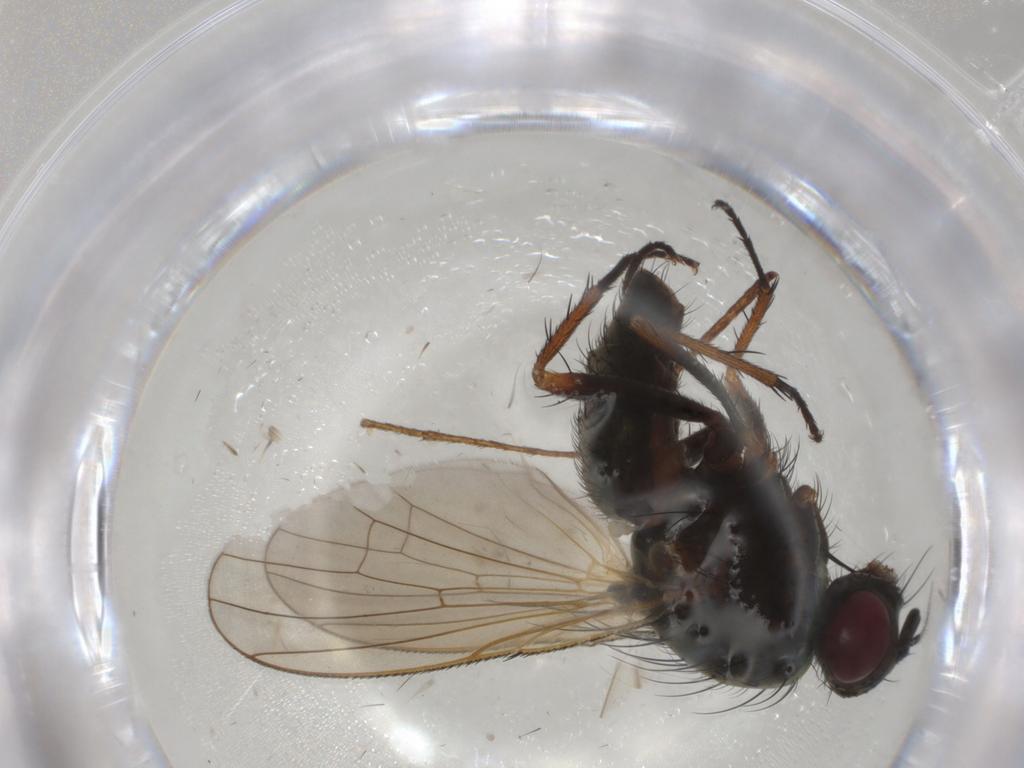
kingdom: Animalia
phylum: Arthropoda
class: Insecta
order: Diptera
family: Anthomyiidae
